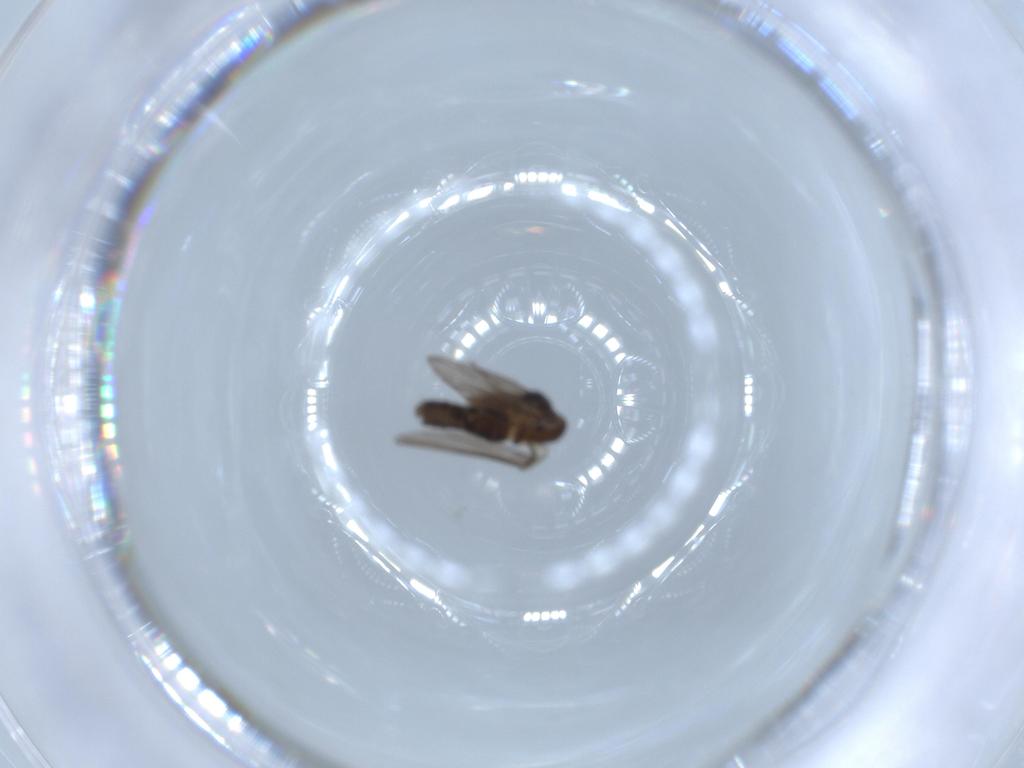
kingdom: Animalia
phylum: Arthropoda
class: Insecta
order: Diptera
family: Psychodidae
